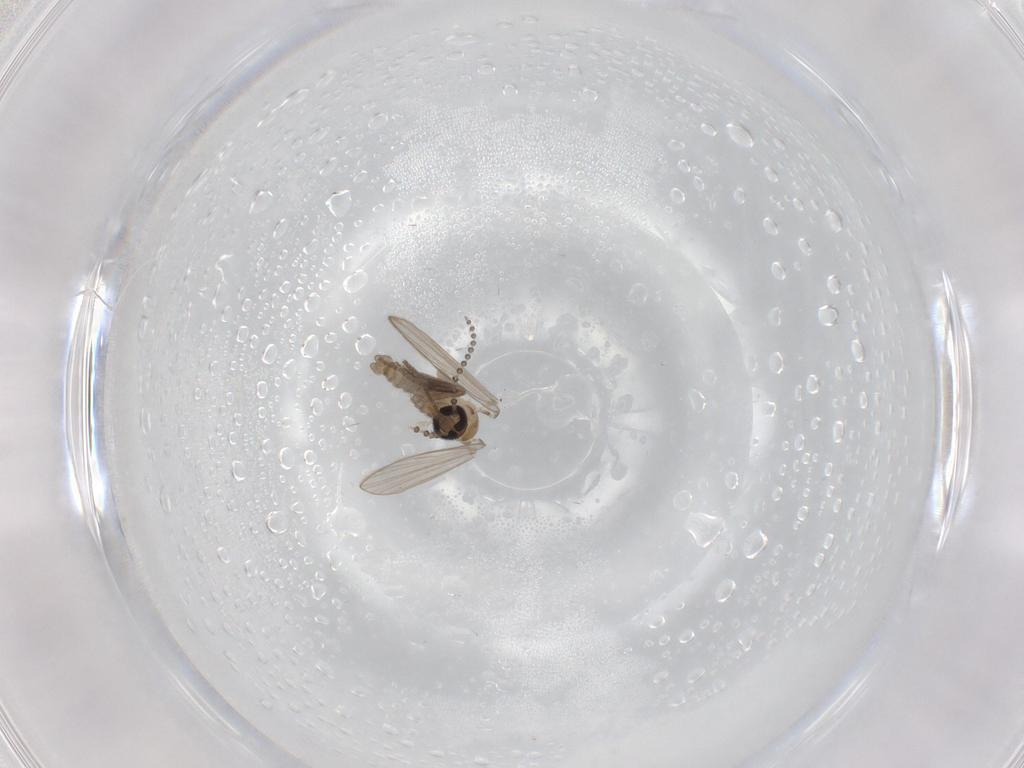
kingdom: Animalia
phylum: Arthropoda
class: Insecta
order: Diptera
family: Psychodidae
